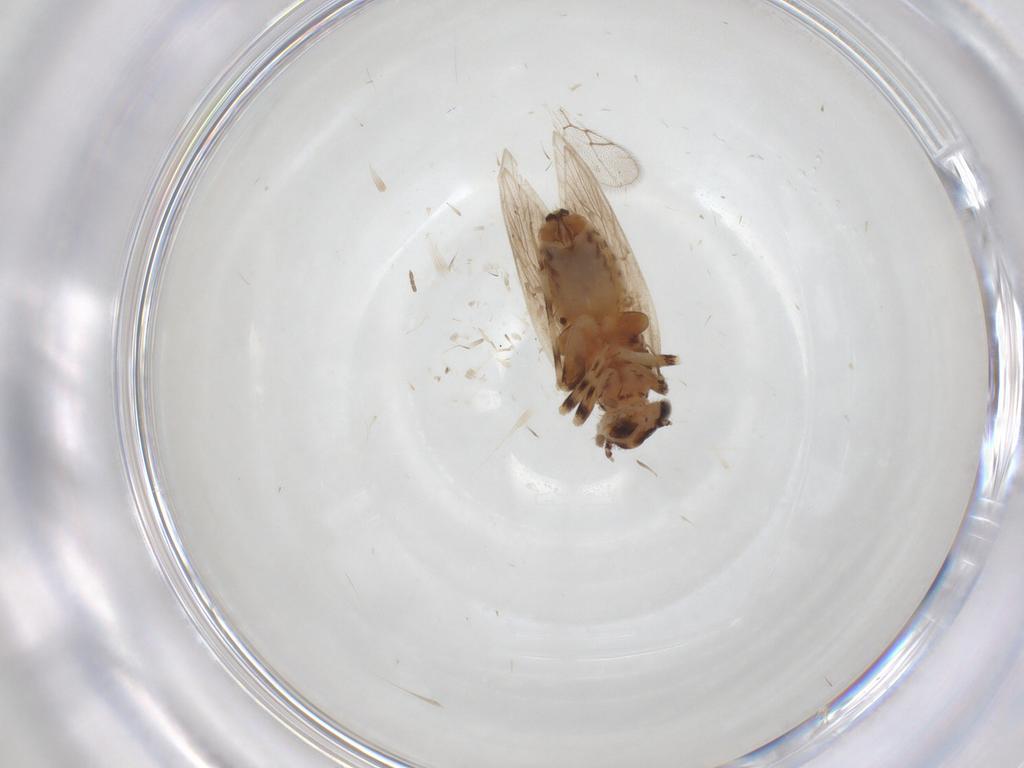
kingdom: Animalia
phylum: Arthropoda
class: Insecta
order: Psocodea
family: Lepidopsocidae
